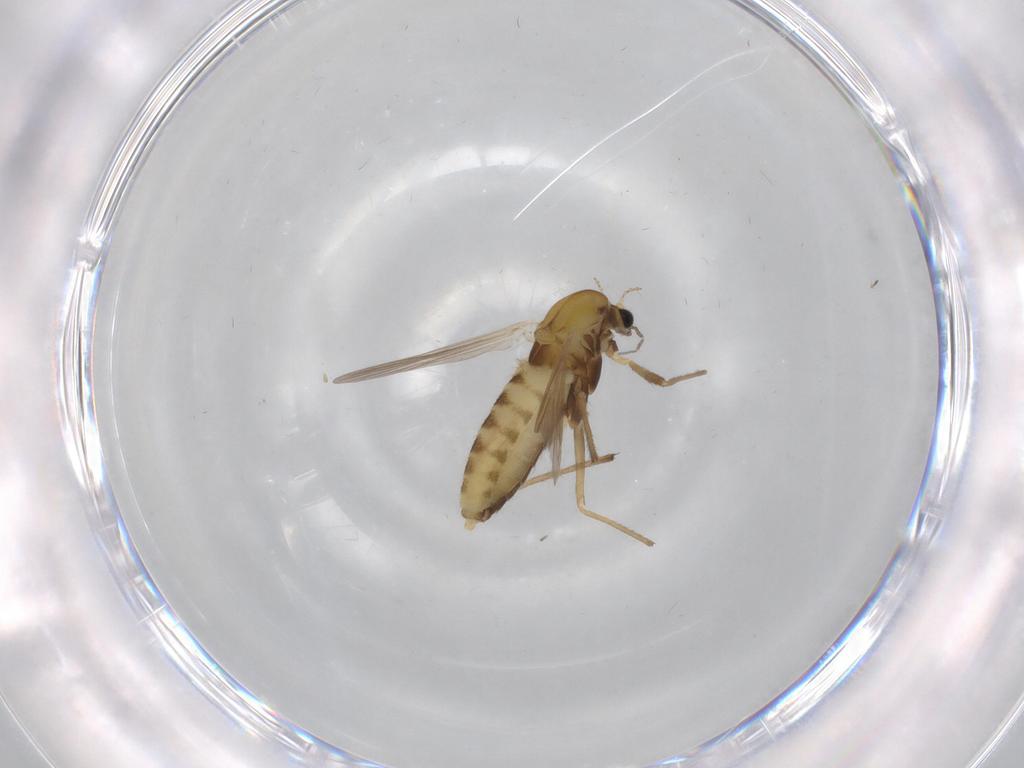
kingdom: Animalia
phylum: Arthropoda
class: Insecta
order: Diptera
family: Chironomidae
